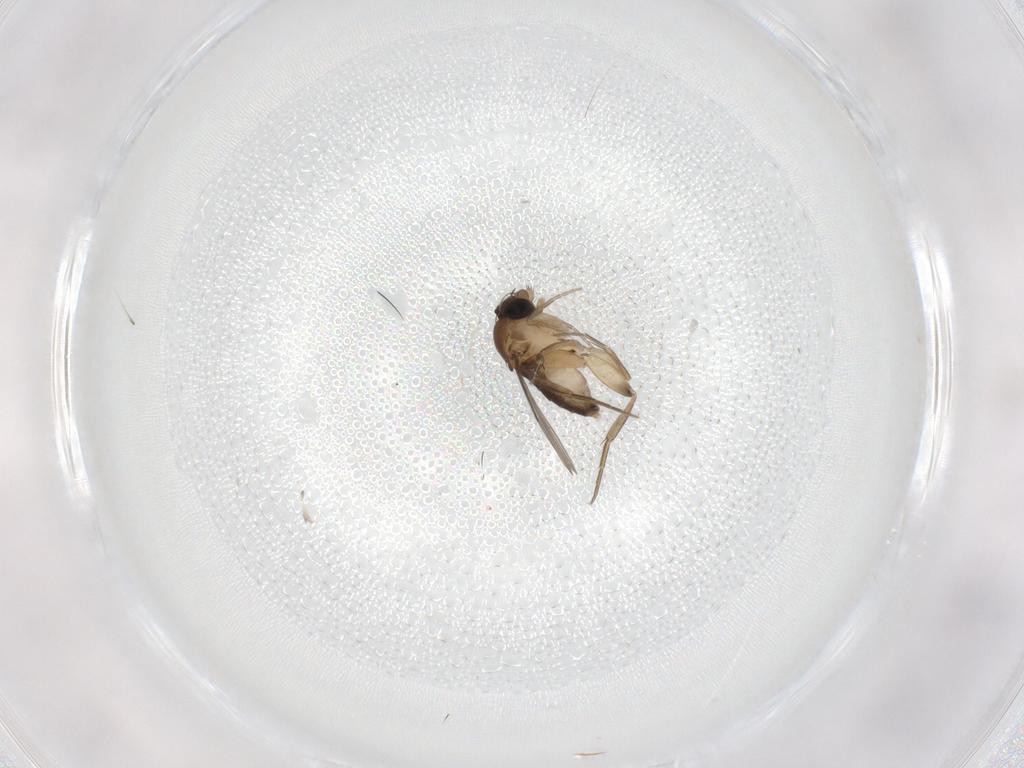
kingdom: Animalia
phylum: Arthropoda
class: Insecta
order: Diptera
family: Phoridae
